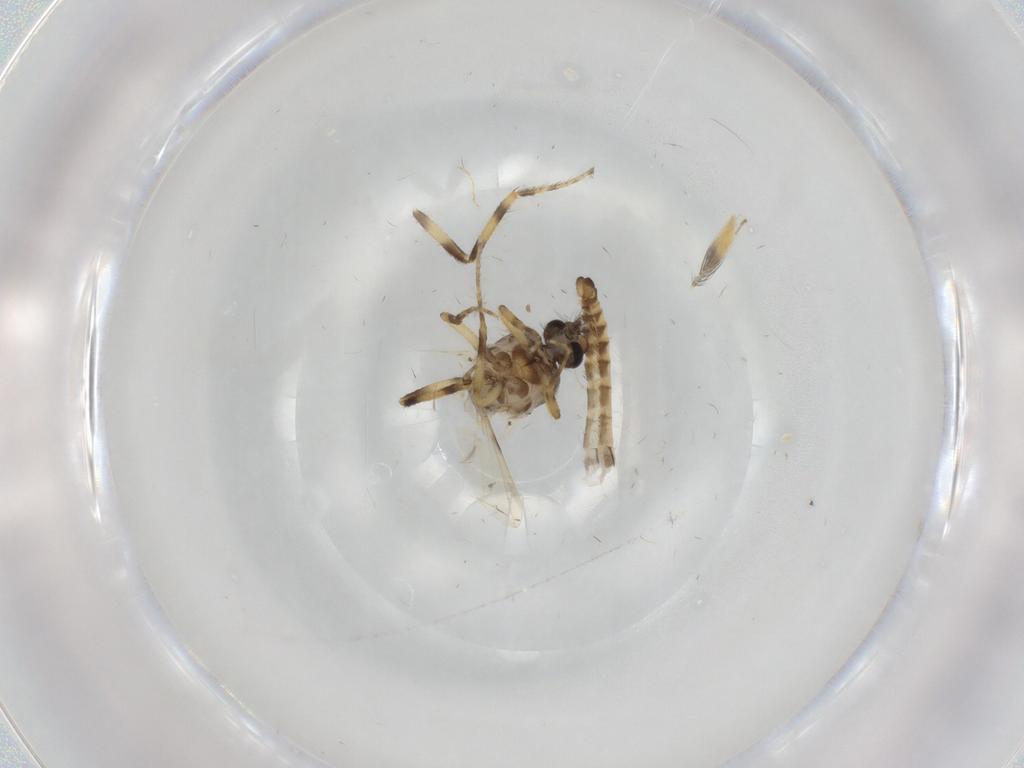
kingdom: Animalia
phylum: Arthropoda
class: Insecta
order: Diptera
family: Ceratopogonidae
